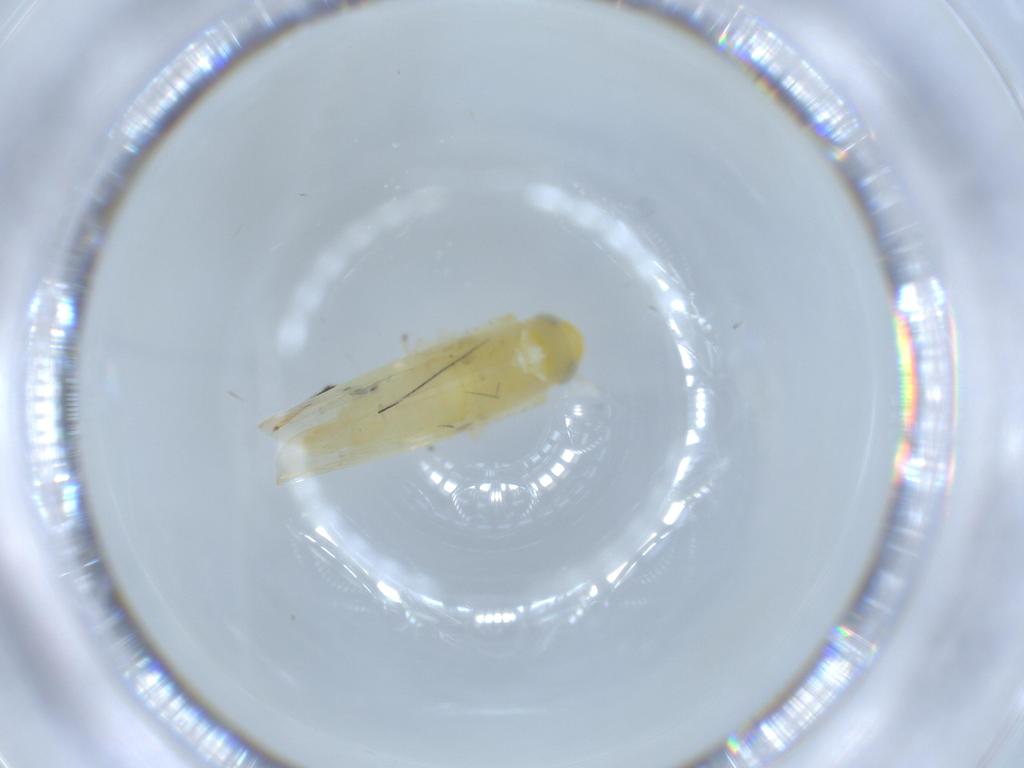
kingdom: Animalia
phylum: Arthropoda
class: Insecta
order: Hemiptera
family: Cicadellidae
